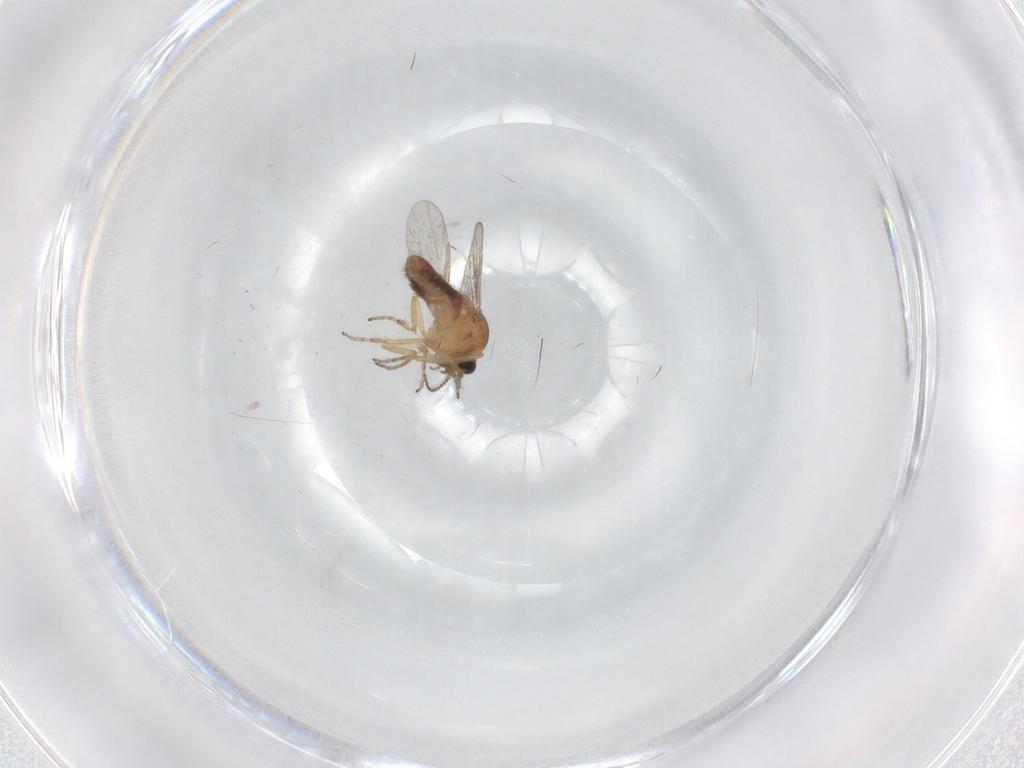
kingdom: Animalia
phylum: Arthropoda
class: Insecta
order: Diptera
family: Ceratopogonidae
